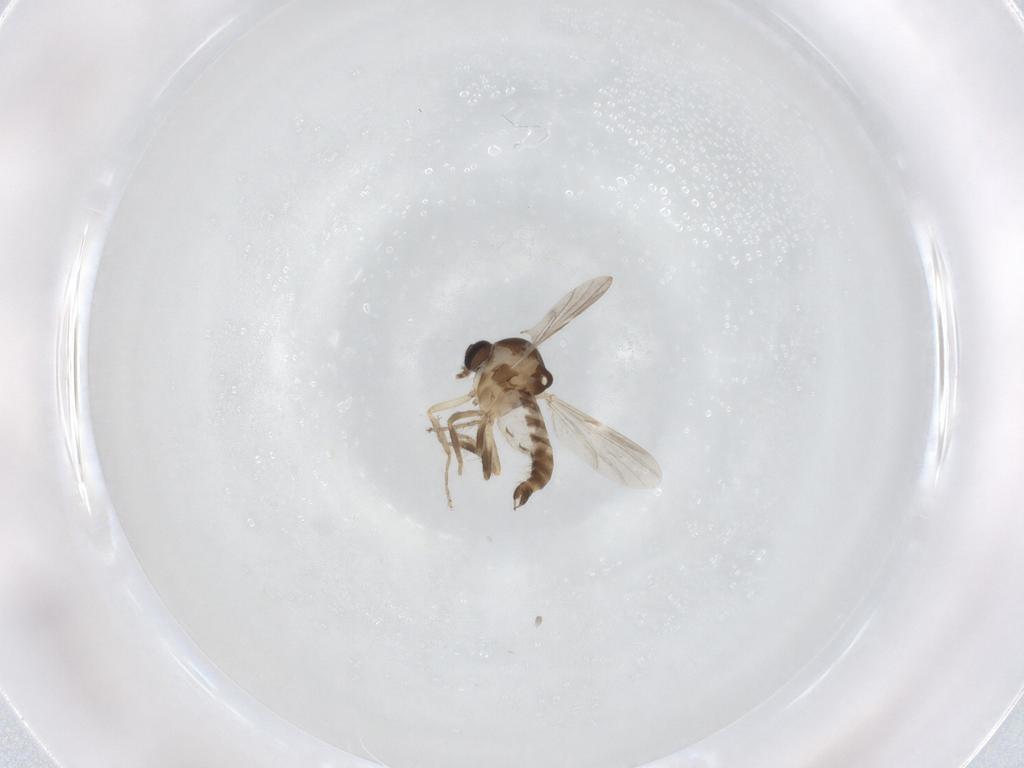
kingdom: Animalia
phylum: Arthropoda
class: Insecta
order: Diptera
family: Ceratopogonidae
